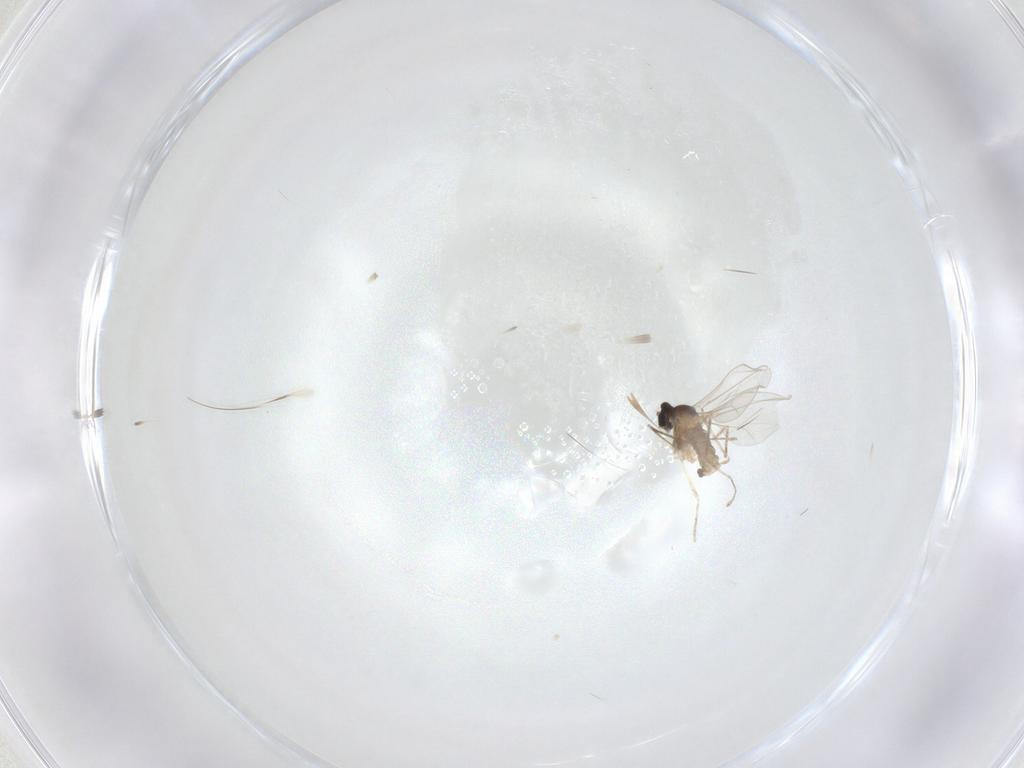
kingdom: Animalia
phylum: Arthropoda
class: Insecta
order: Diptera
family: Cecidomyiidae
